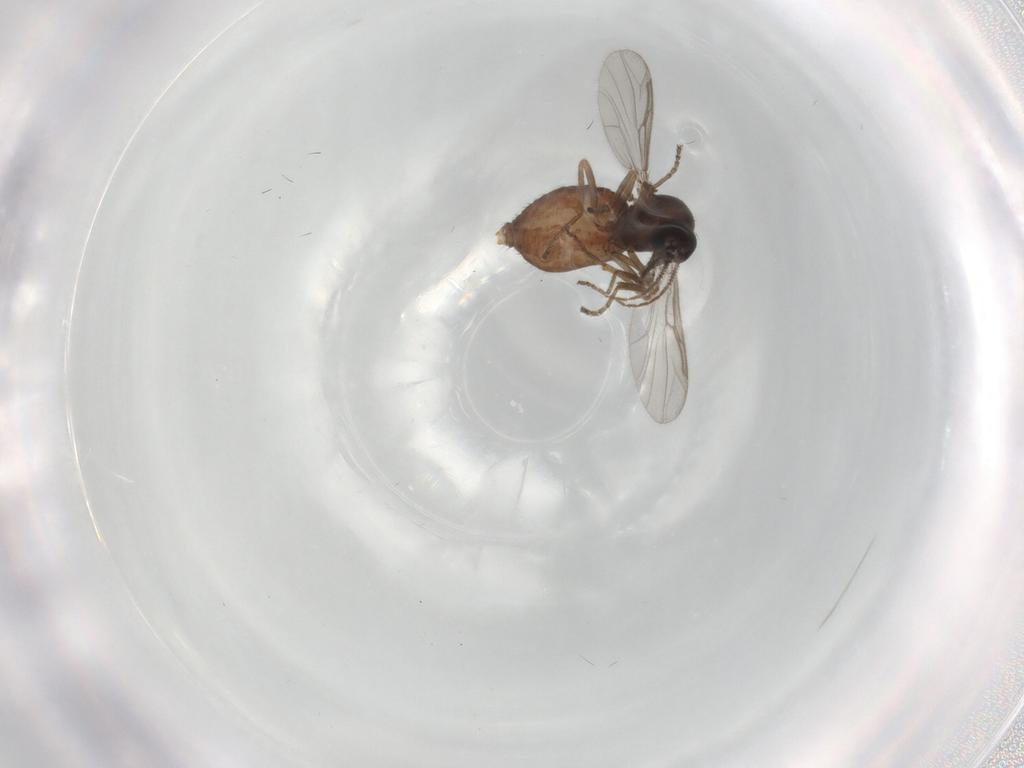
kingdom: Animalia
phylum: Arthropoda
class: Insecta
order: Diptera
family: Ceratopogonidae
